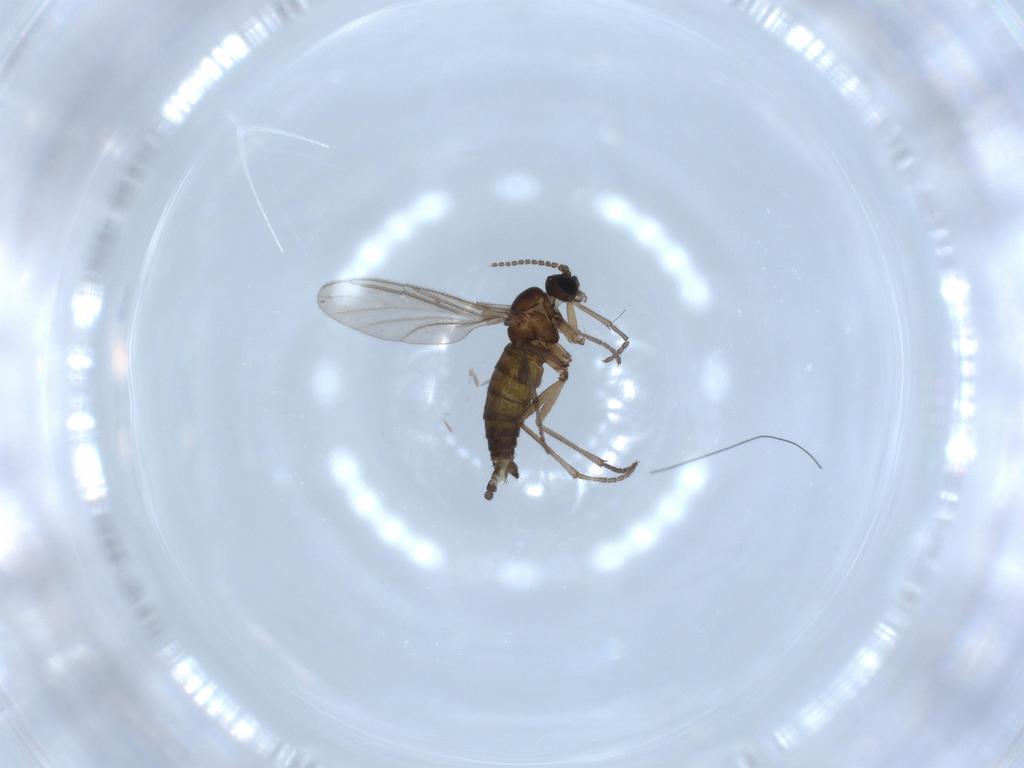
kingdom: Animalia
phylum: Arthropoda
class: Insecta
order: Diptera
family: Sciaridae
